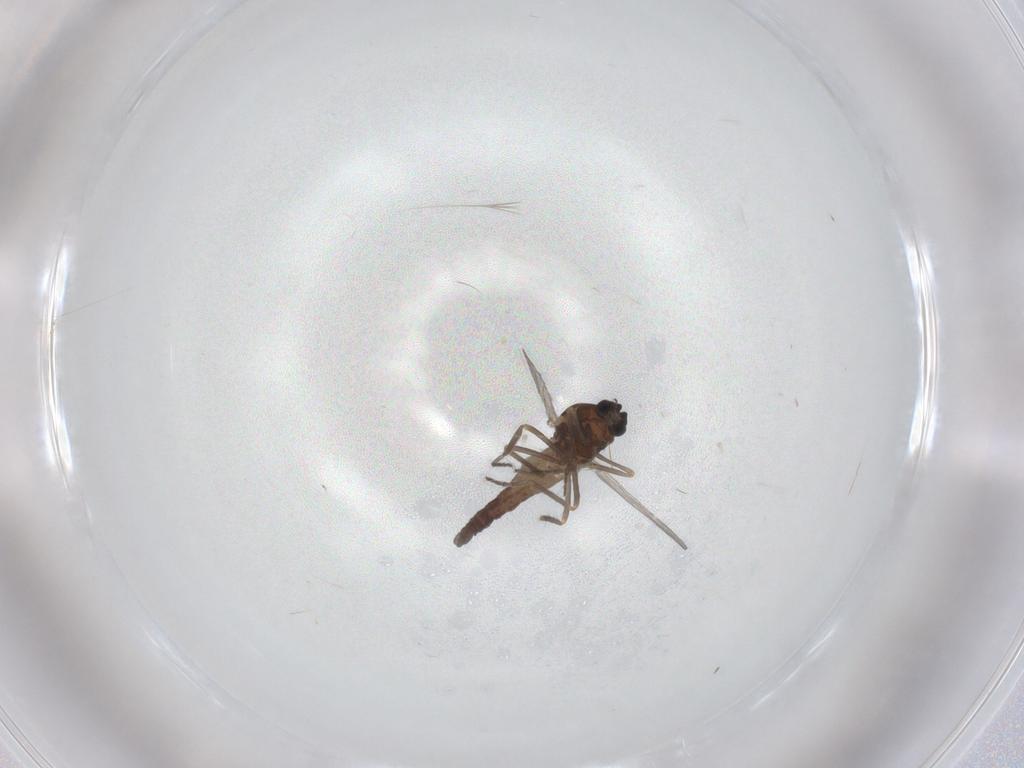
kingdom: Animalia
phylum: Arthropoda
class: Insecta
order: Diptera
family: Ceratopogonidae
